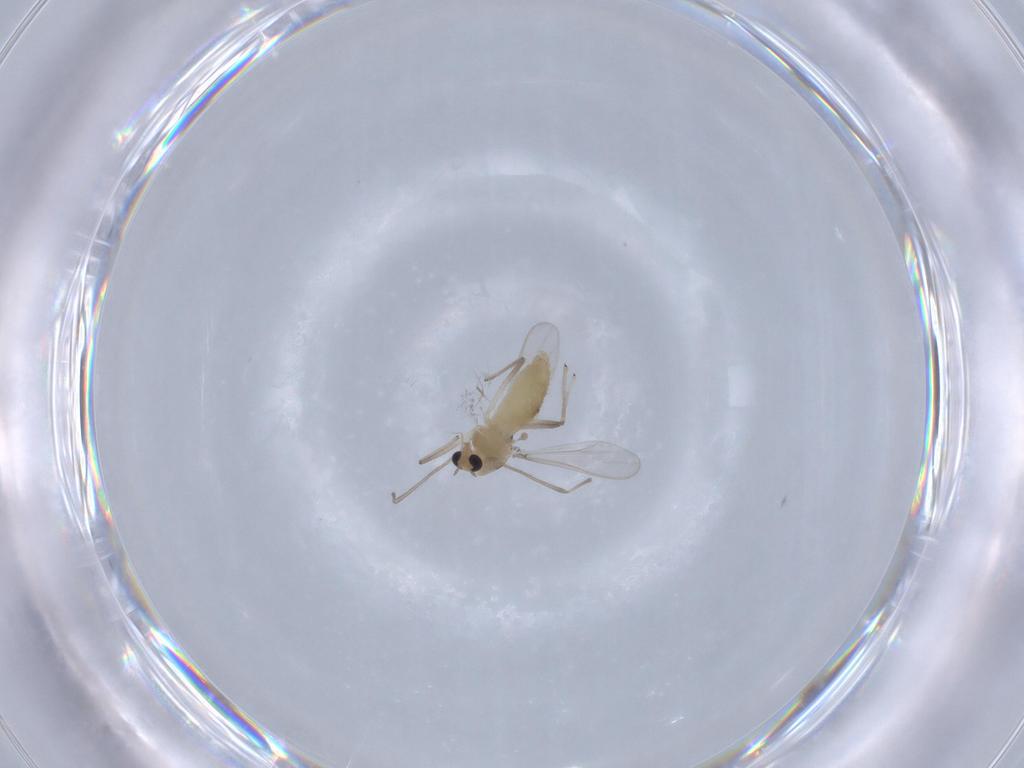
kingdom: Animalia
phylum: Arthropoda
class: Insecta
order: Diptera
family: Chironomidae
